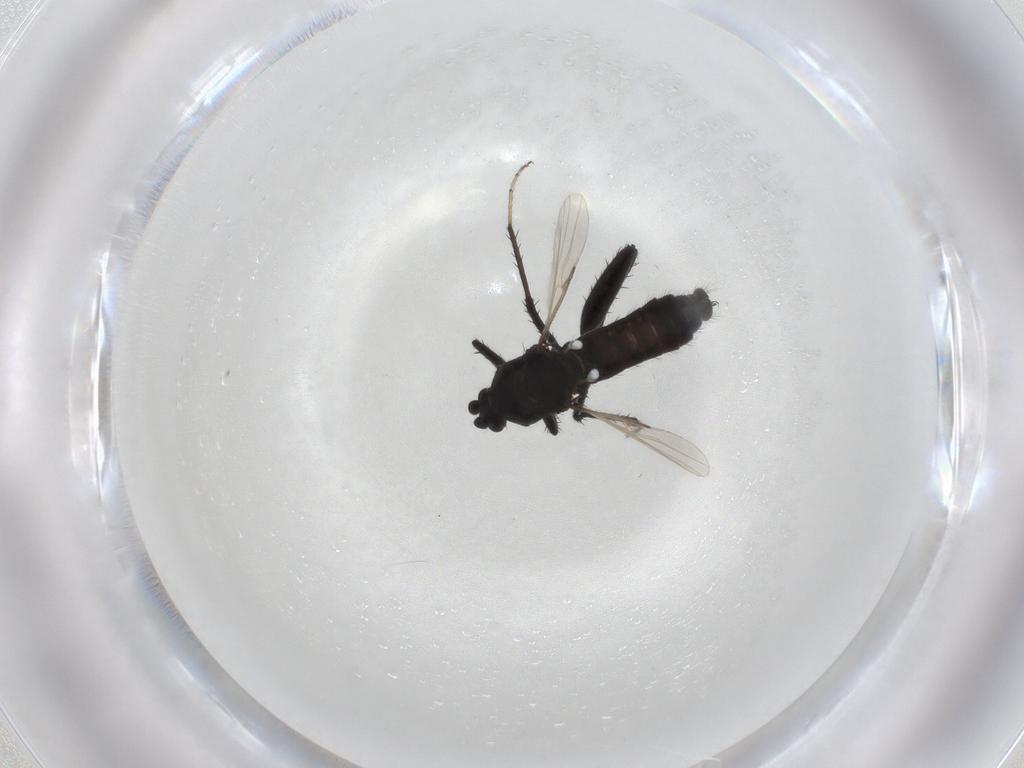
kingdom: Animalia
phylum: Arthropoda
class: Insecta
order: Diptera
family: Ceratopogonidae
